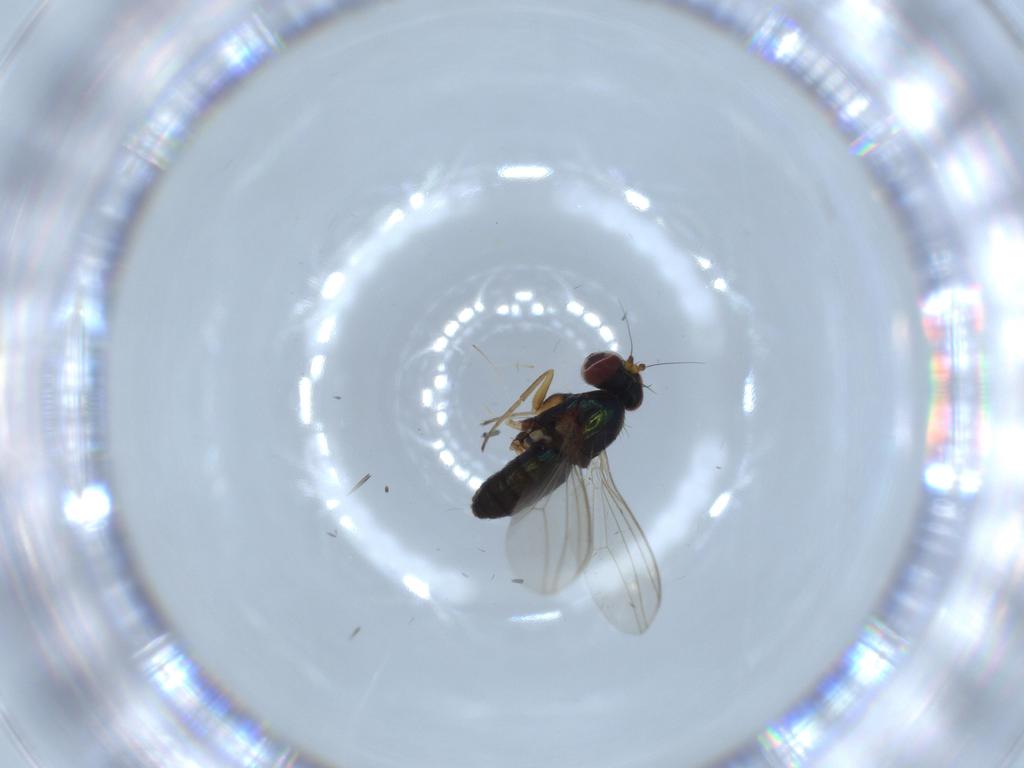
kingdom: Animalia
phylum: Arthropoda
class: Insecta
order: Diptera
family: Dolichopodidae
